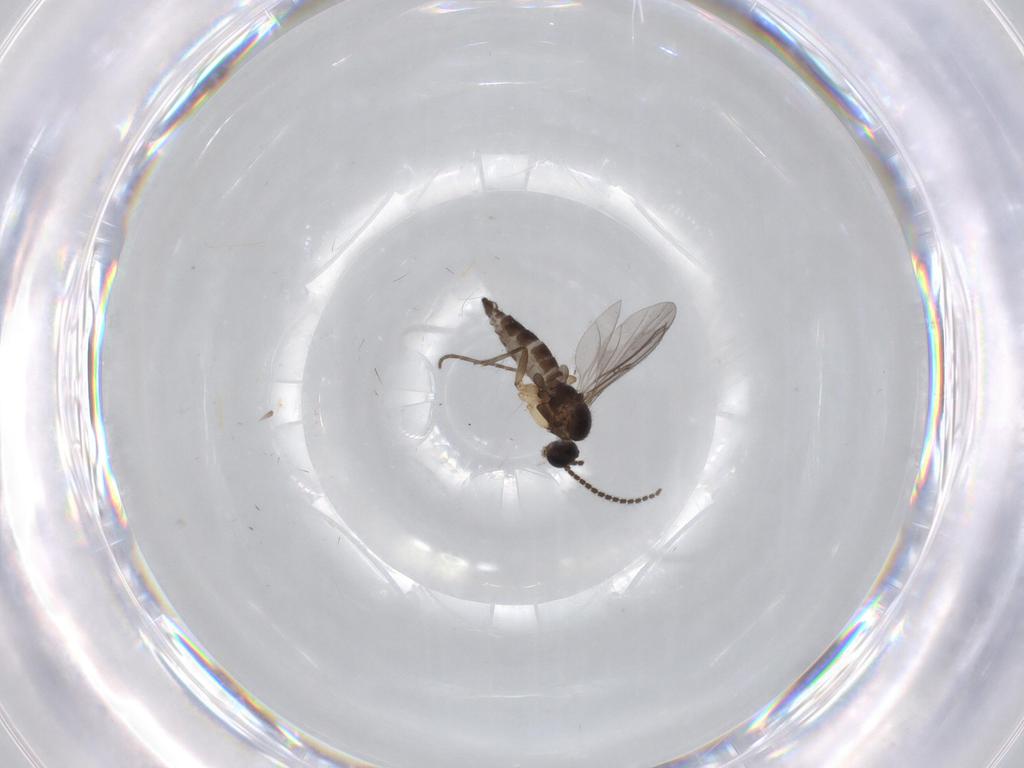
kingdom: Animalia
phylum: Arthropoda
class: Insecta
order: Diptera
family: Sciaridae
